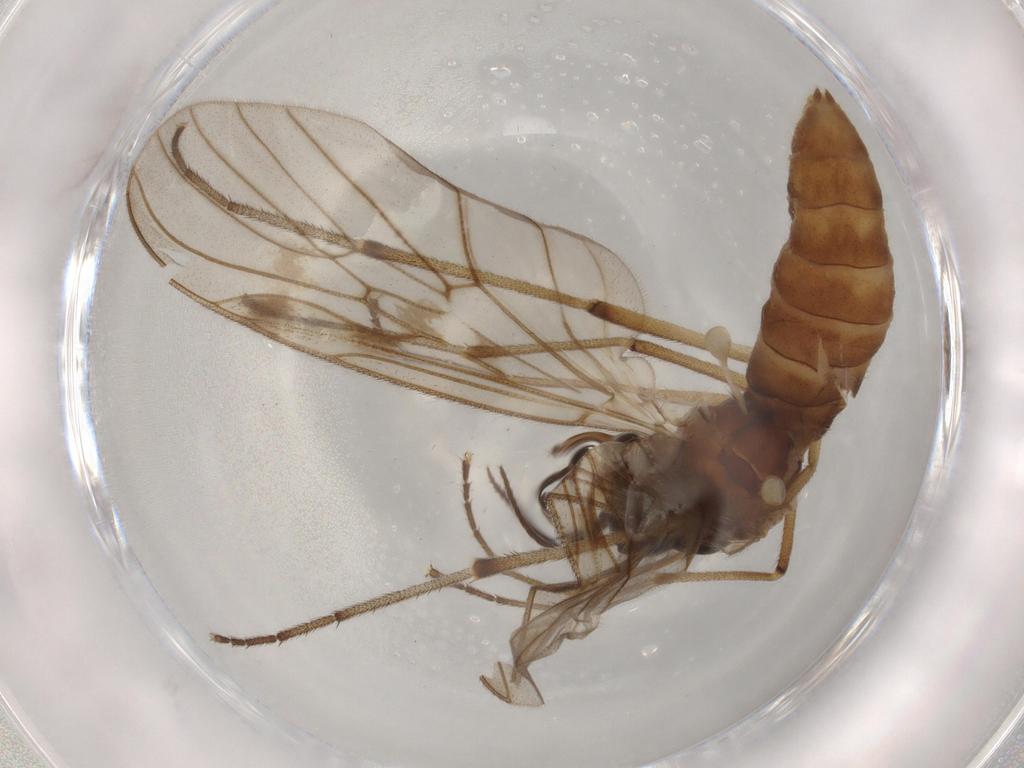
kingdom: Animalia
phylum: Arthropoda
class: Insecta
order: Diptera
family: Anisopodidae
